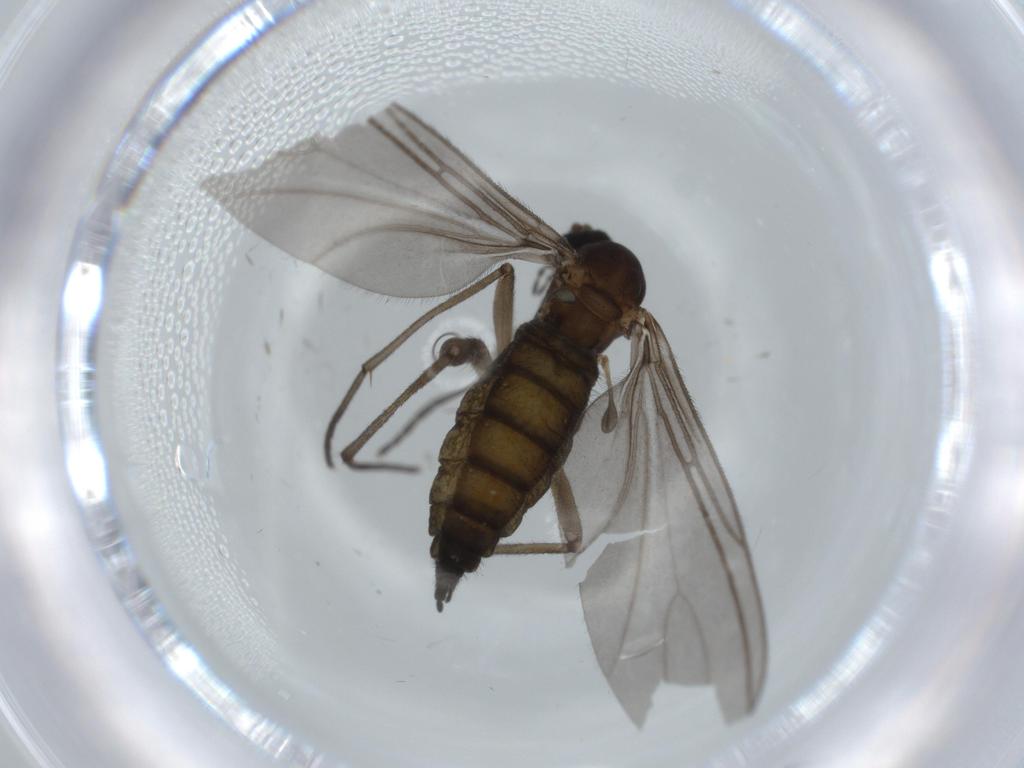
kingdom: Animalia
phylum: Arthropoda
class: Insecta
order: Diptera
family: Sciaridae
